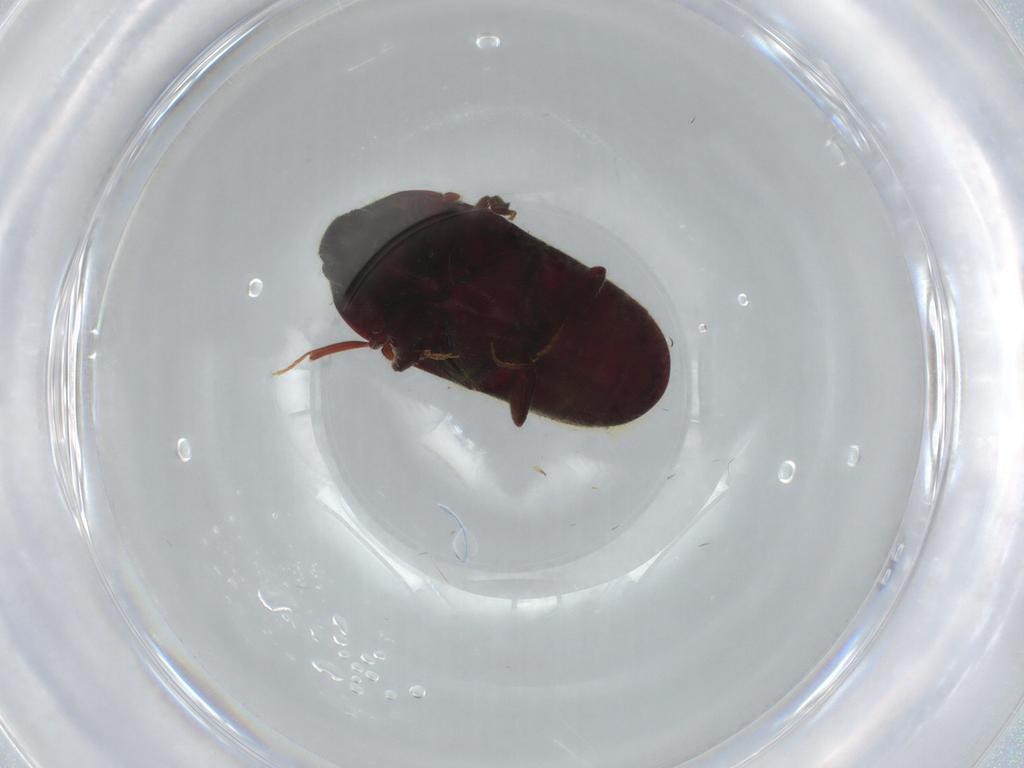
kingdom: Animalia
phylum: Arthropoda
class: Insecta
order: Coleoptera
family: Throscidae
